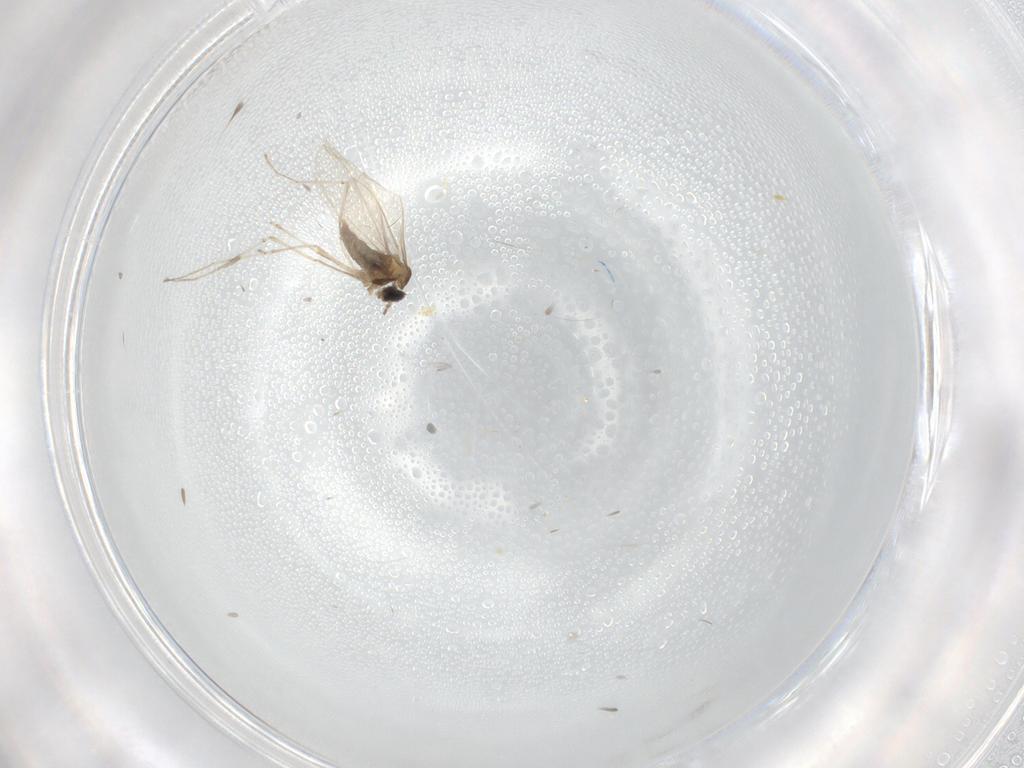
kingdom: Animalia
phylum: Arthropoda
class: Insecta
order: Diptera
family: Cecidomyiidae
